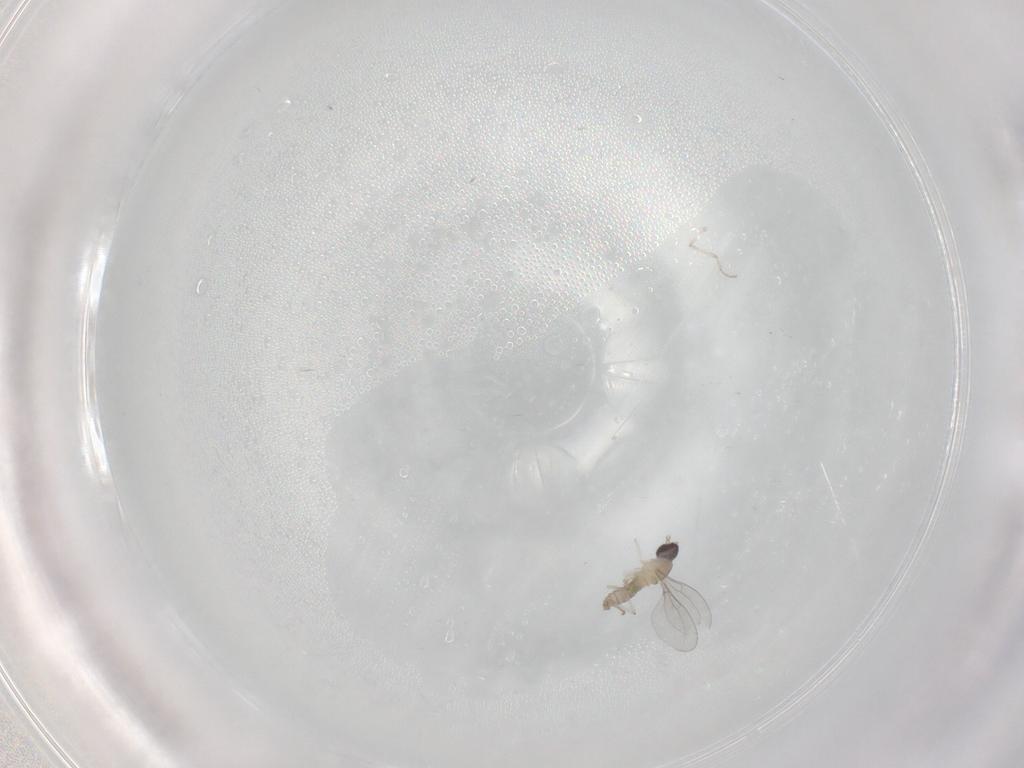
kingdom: Animalia
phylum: Arthropoda
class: Insecta
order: Diptera
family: Cecidomyiidae
